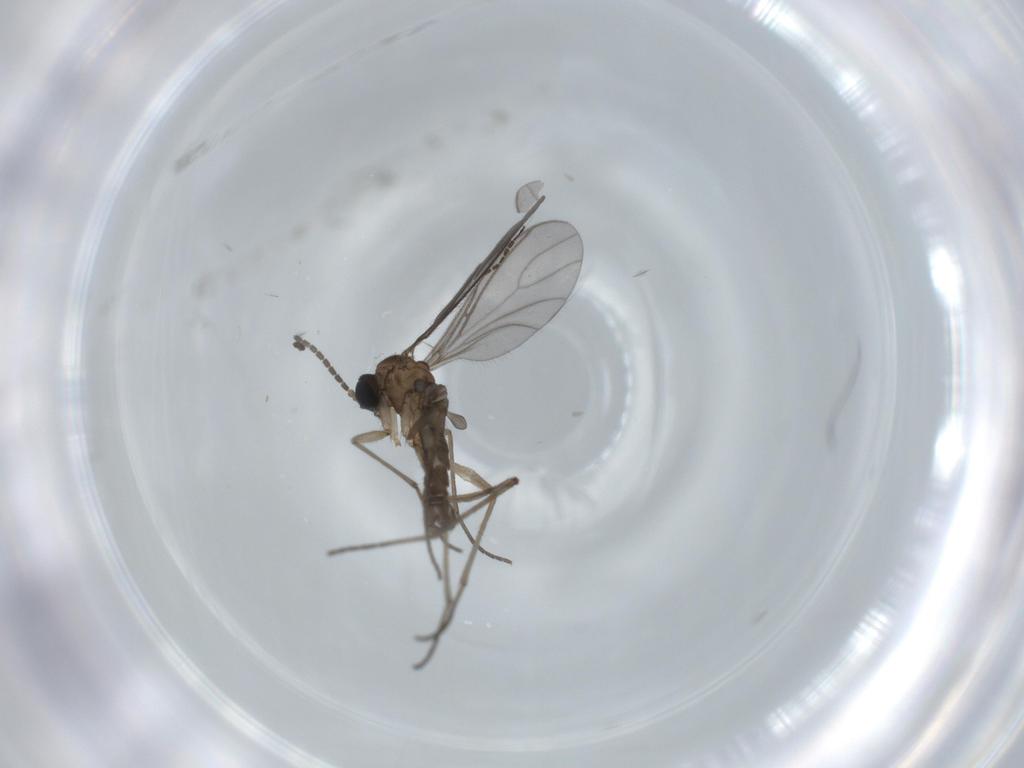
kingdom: Animalia
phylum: Arthropoda
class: Insecta
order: Diptera
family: Sciaridae
